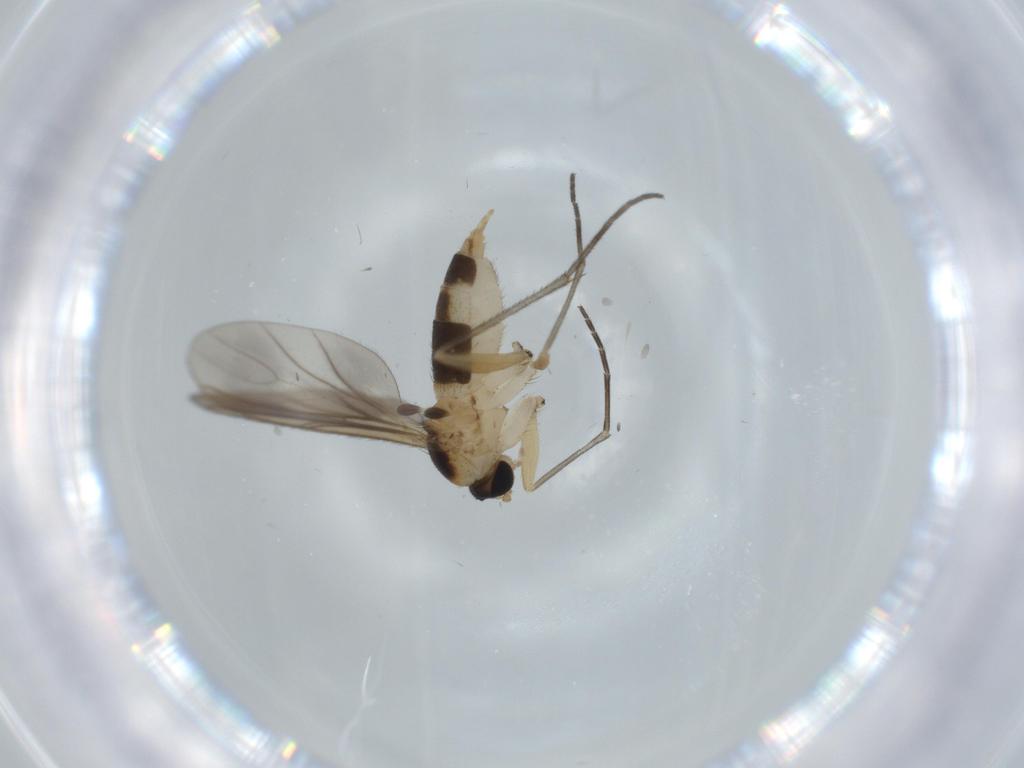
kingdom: Animalia
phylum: Arthropoda
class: Insecta
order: Diptera
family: Sciaridae
